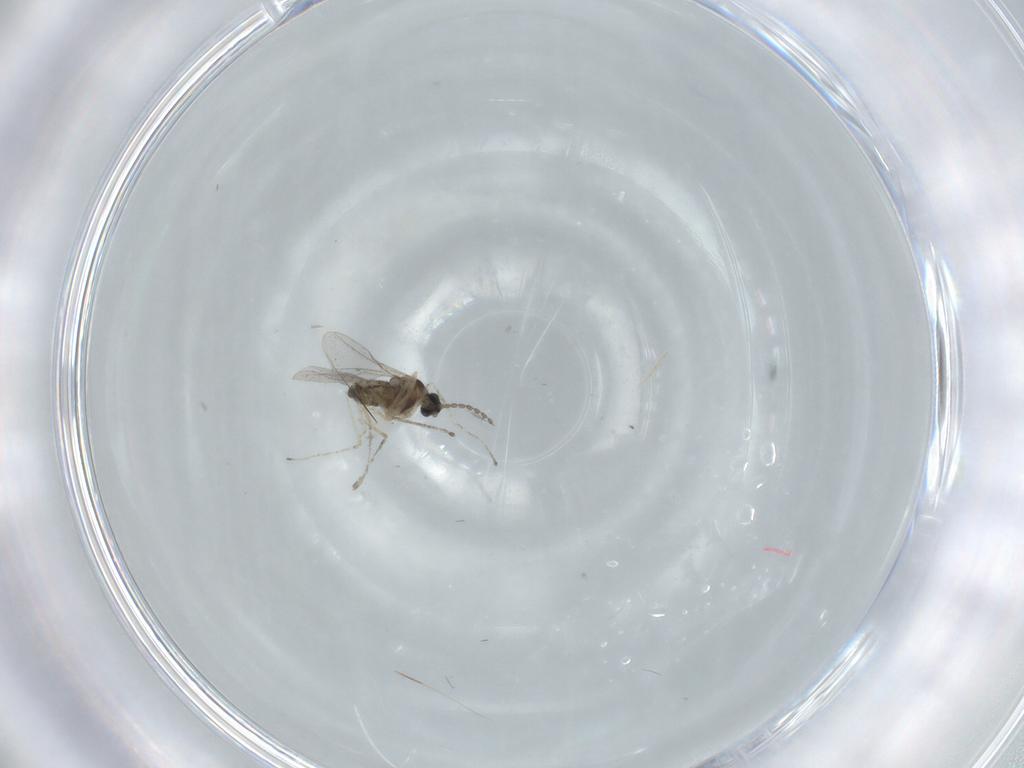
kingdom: Animalia
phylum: Arthropoda
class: Insecta
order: Diptera
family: Cecidomyiidae
